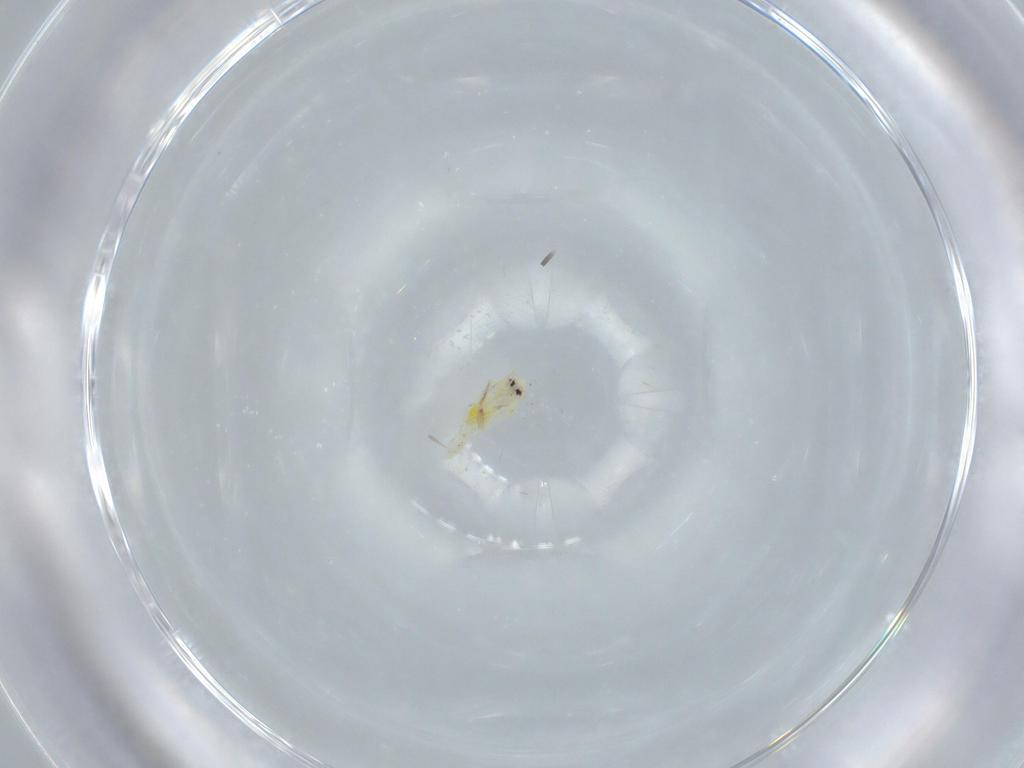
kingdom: Animalia
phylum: Arthropoda
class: Insecta
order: Hemiptera
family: Aleyrodidae
